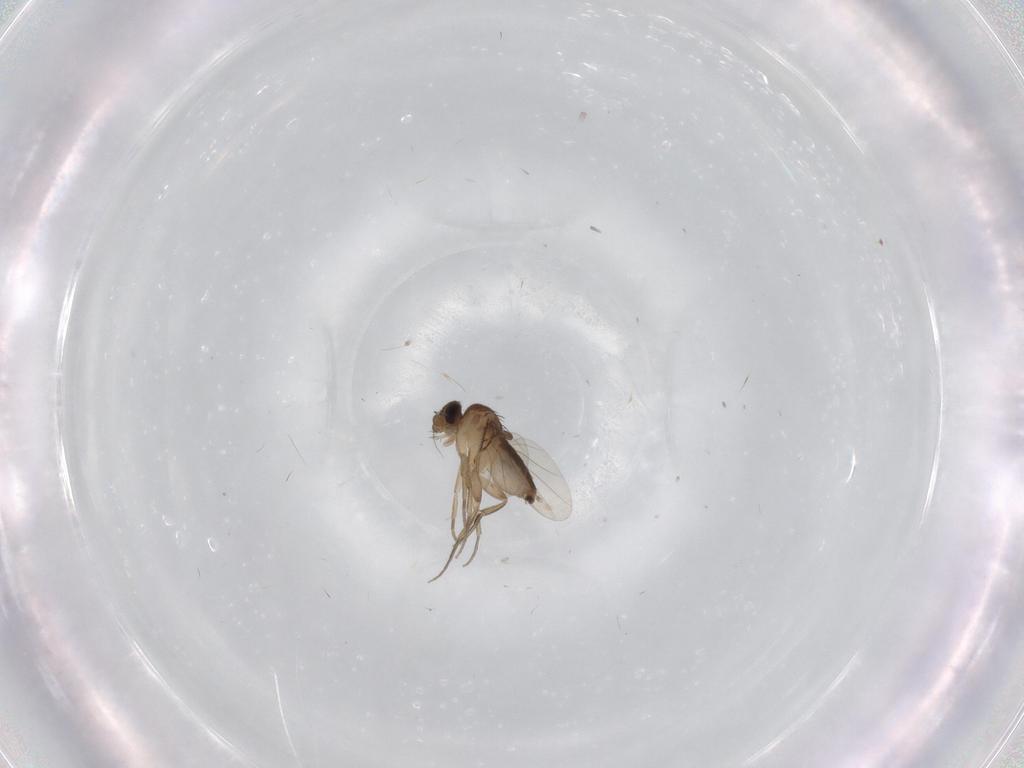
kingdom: Animalia
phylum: Arthropoda
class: Insecta
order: Diptera
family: Phoridae
